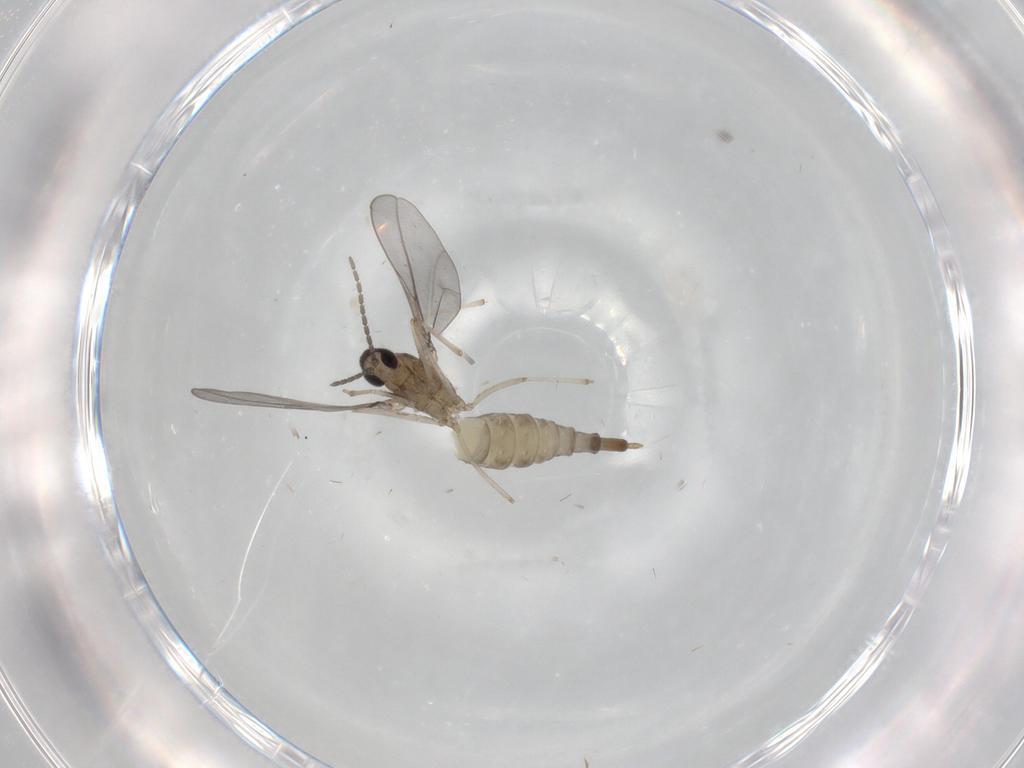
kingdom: Animalia
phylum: Arthropoda
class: Insecta
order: Diptera
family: Cecidomyiidae
